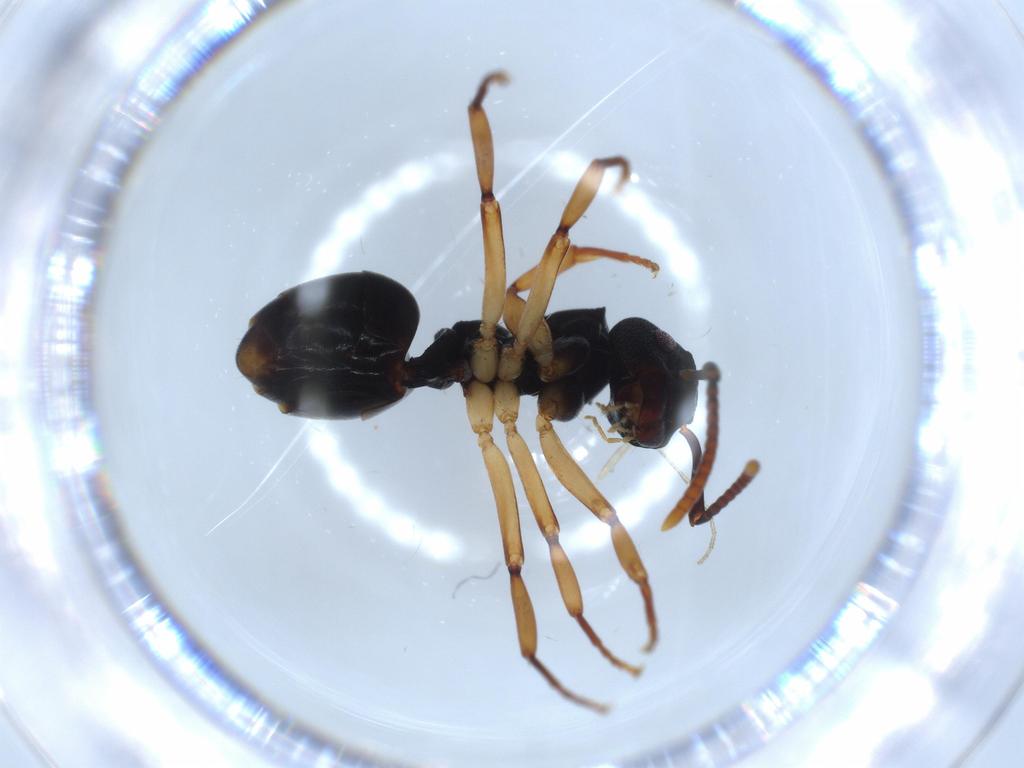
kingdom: Animalia
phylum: Arthropoda
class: Insecta
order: Hymenoptera
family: Formicidae
